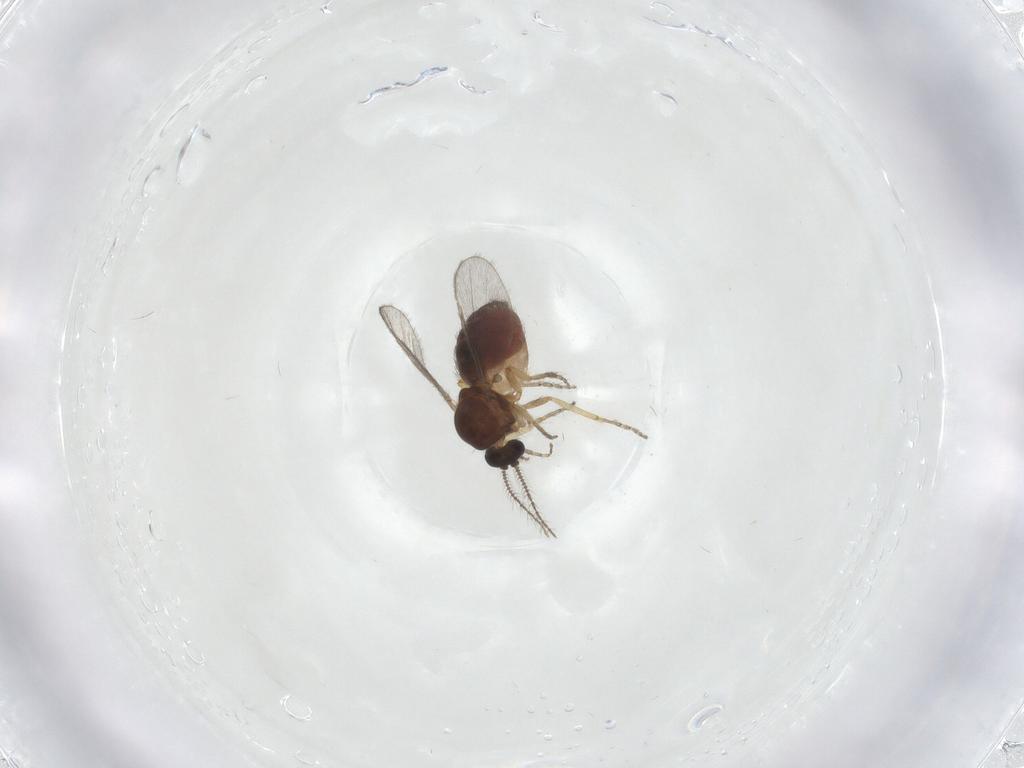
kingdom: Animalia
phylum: Arthropoda
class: Insecta
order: Diptera
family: Ceratopogonidae
